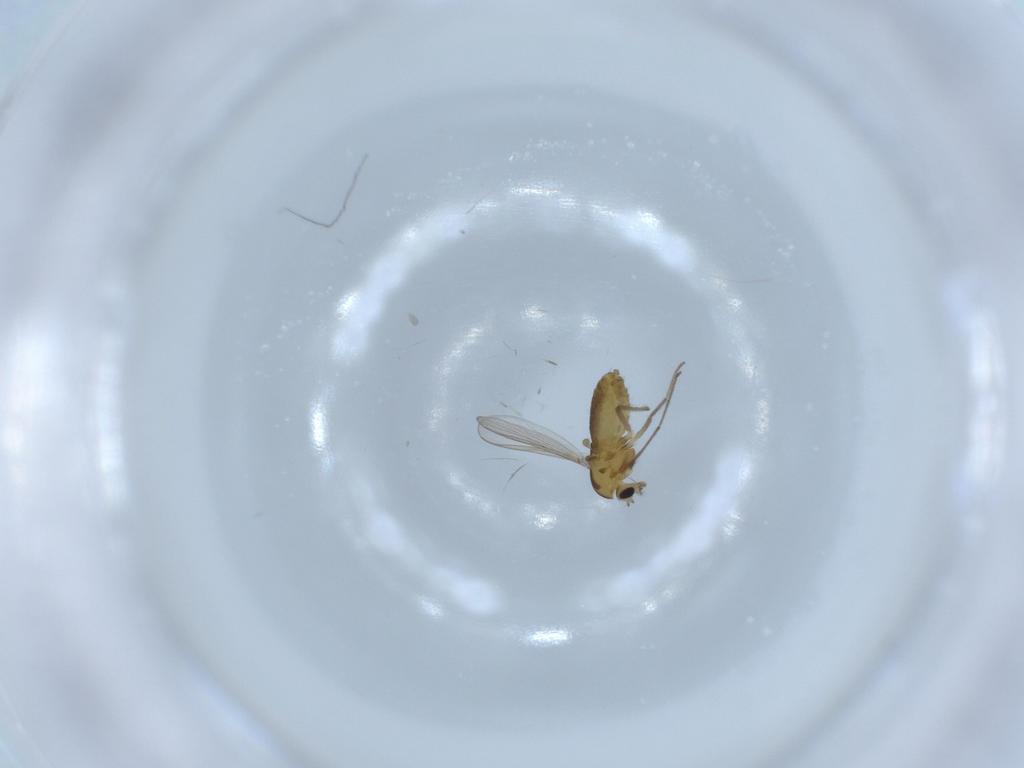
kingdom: Animalia
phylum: Arthropoda
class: Insecta
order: Diptera
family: Chironomidae
